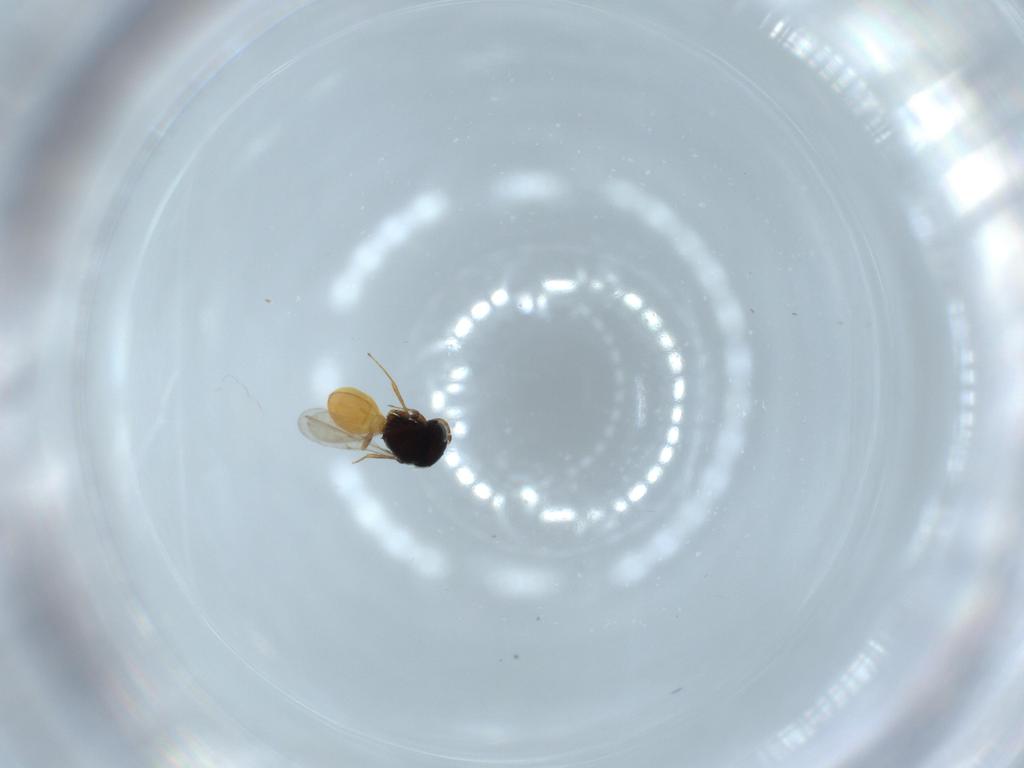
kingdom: Animalia
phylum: Arthropoda
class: Insecta
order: Hymenoptera
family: Scelionidae
